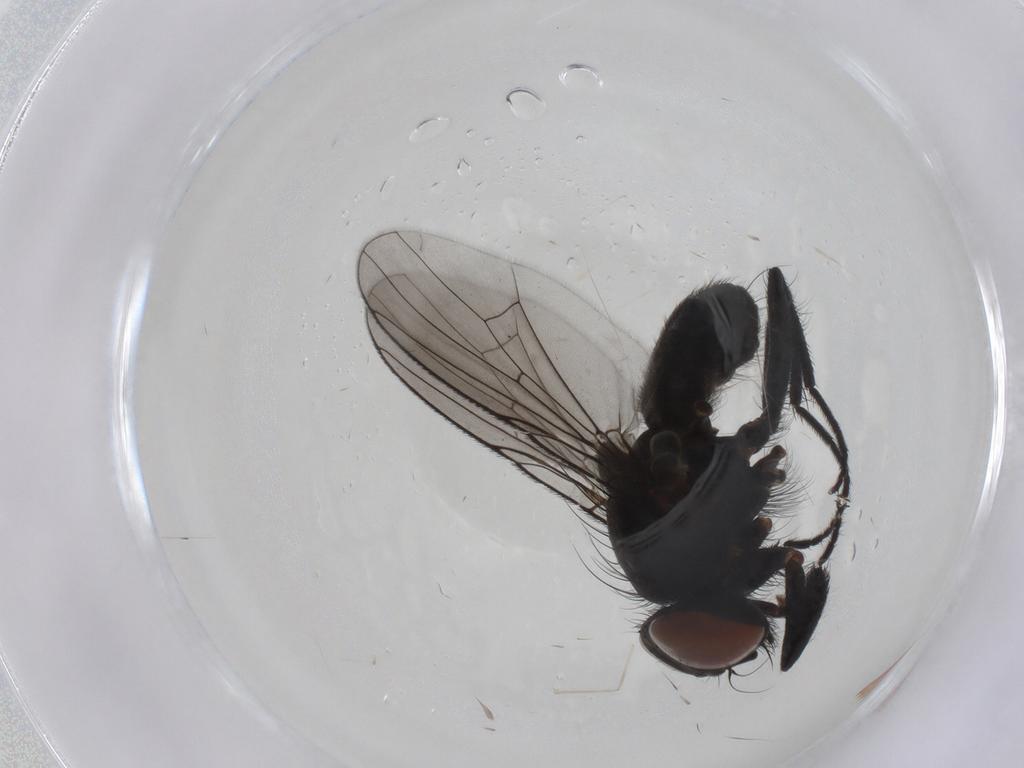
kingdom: Animalia
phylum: Arthropoda
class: Insecta
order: Diptera
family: Muscidae
